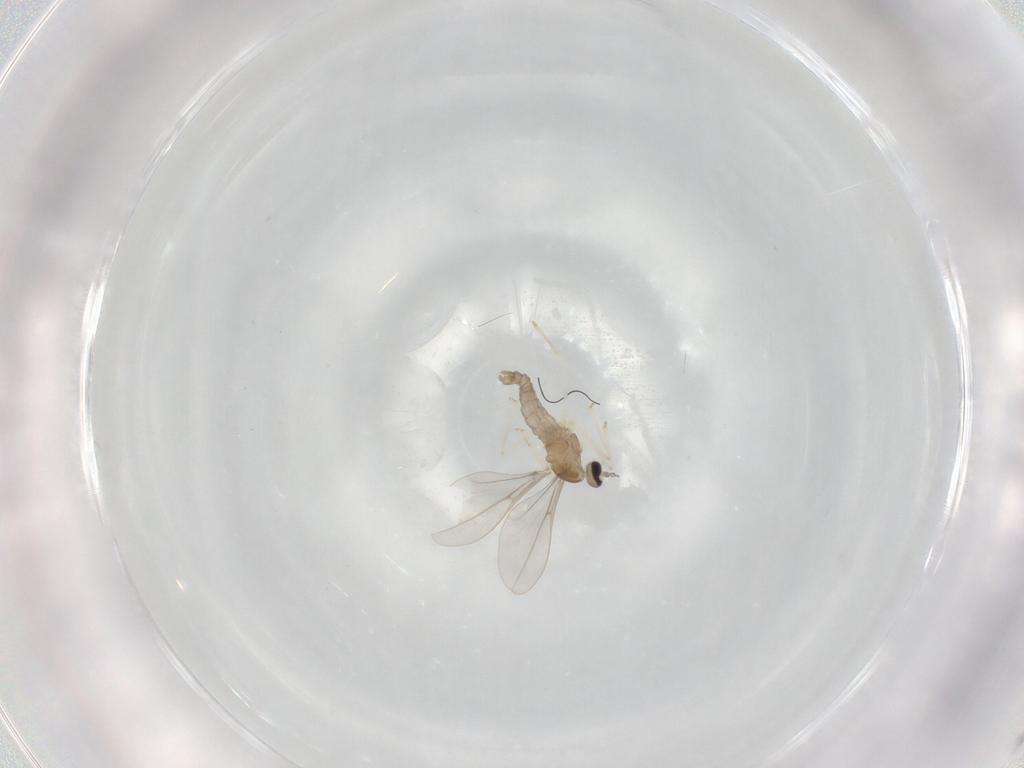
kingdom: Animalia
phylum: Arthropoda
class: Insecta
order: Diptera
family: Cecidomyiidae
